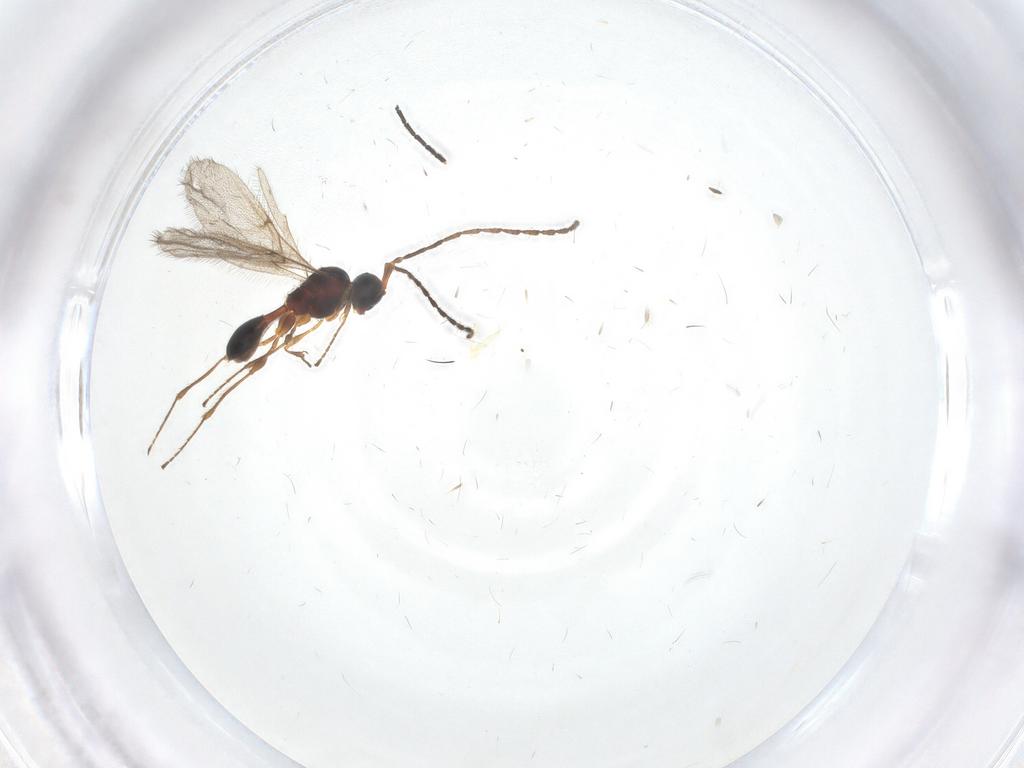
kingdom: Animalia
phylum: Arthropoda
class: Insecta
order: Hymenoptera
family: Diapriidae
